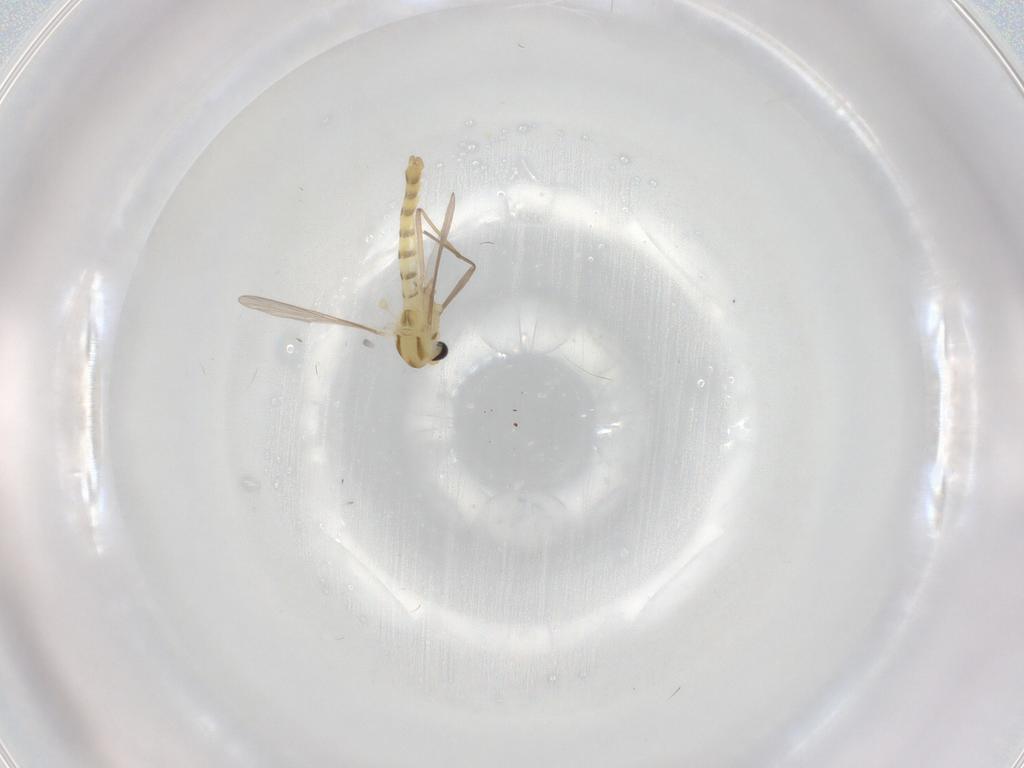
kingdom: Animalia
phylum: Arthropoda
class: Insecta
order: Diptera
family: Chironomidae
